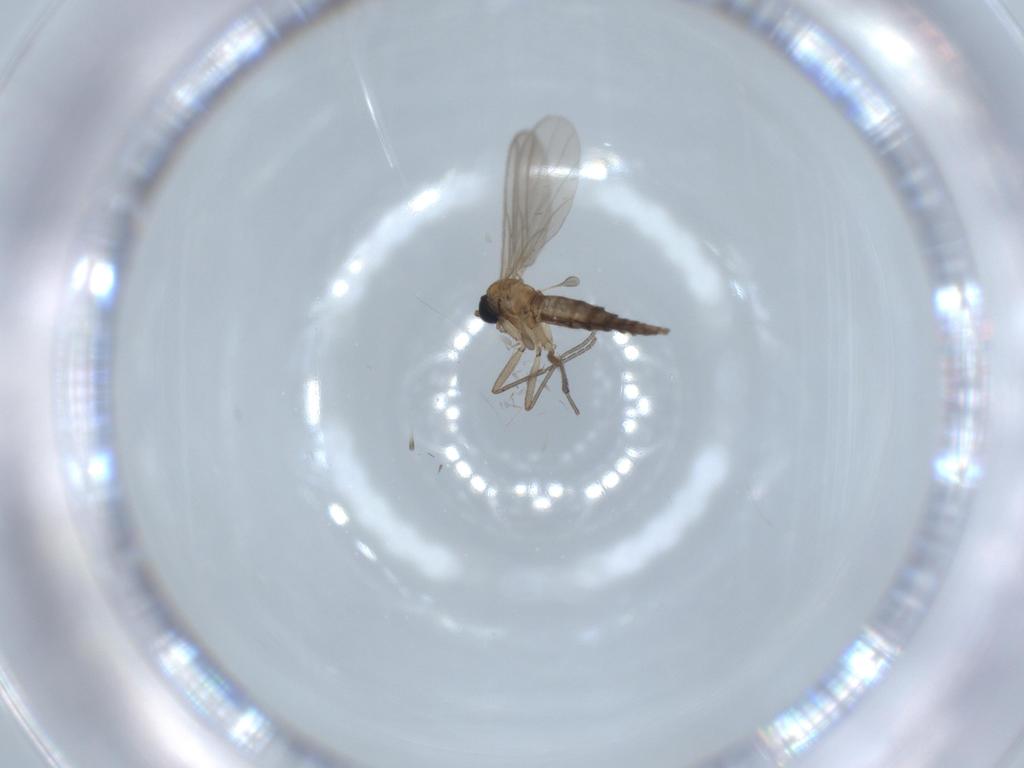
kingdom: Animalia
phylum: Arthropoda
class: Insecta
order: Diptera
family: Sciaridae
